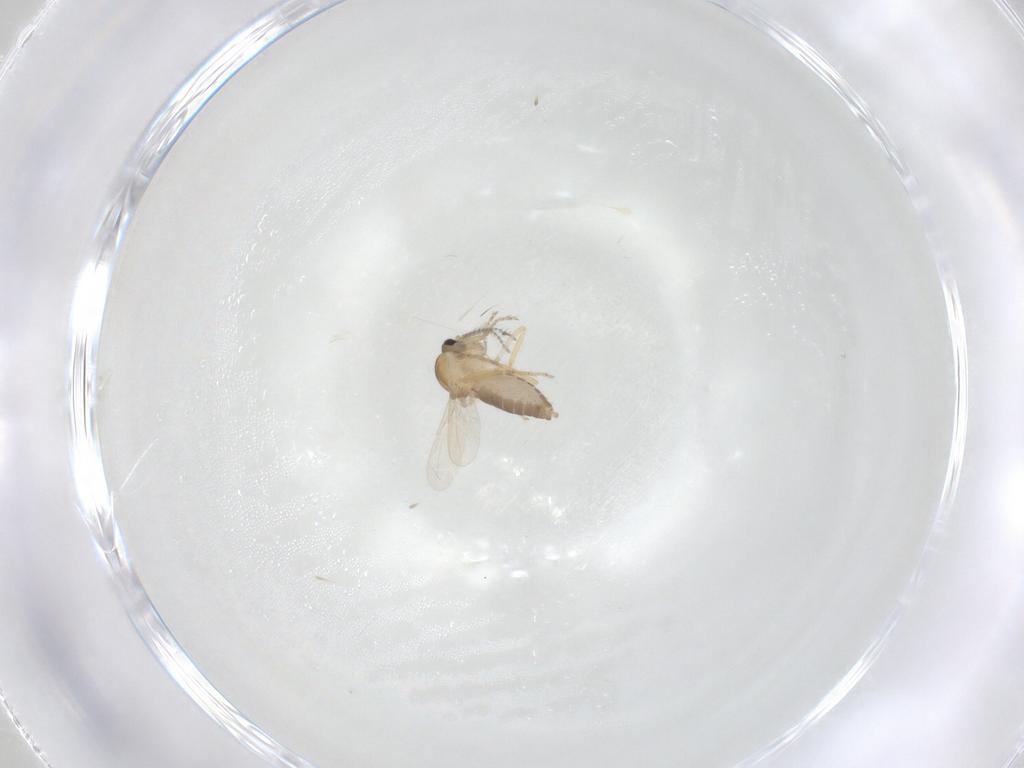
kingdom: Animalia
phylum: Arthropoda
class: Insecta
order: Diptera
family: Ceratopogonidae
